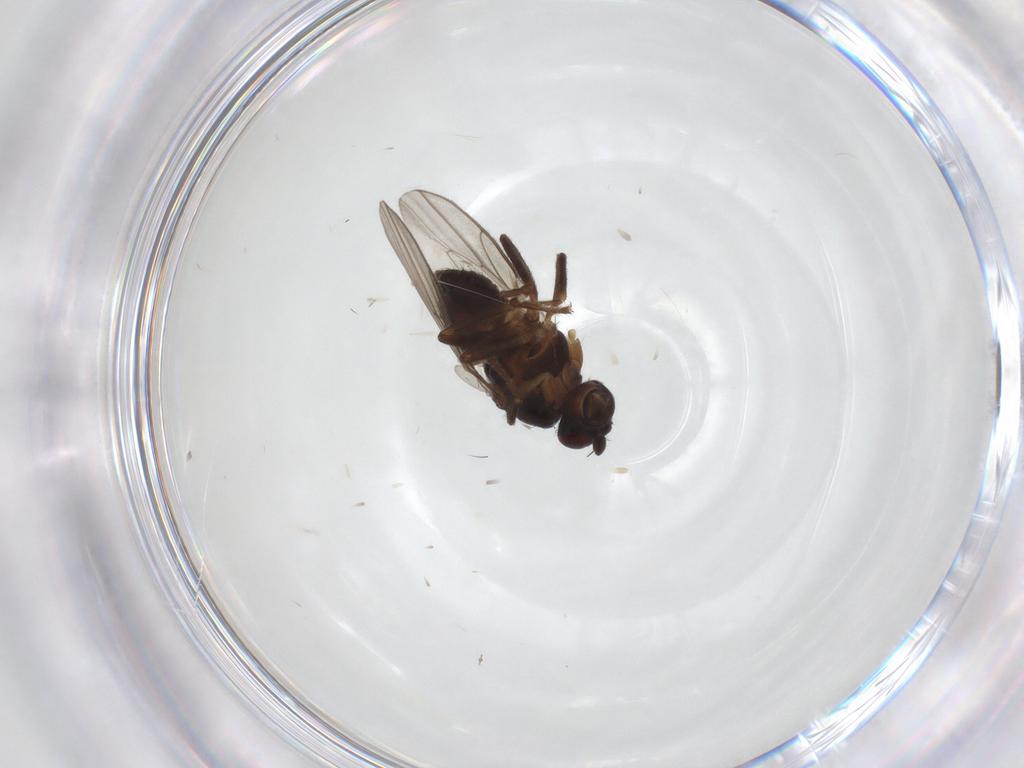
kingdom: Animalia
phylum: Arthropoda
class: Insecta
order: Diptera
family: Sphaeroceridae
